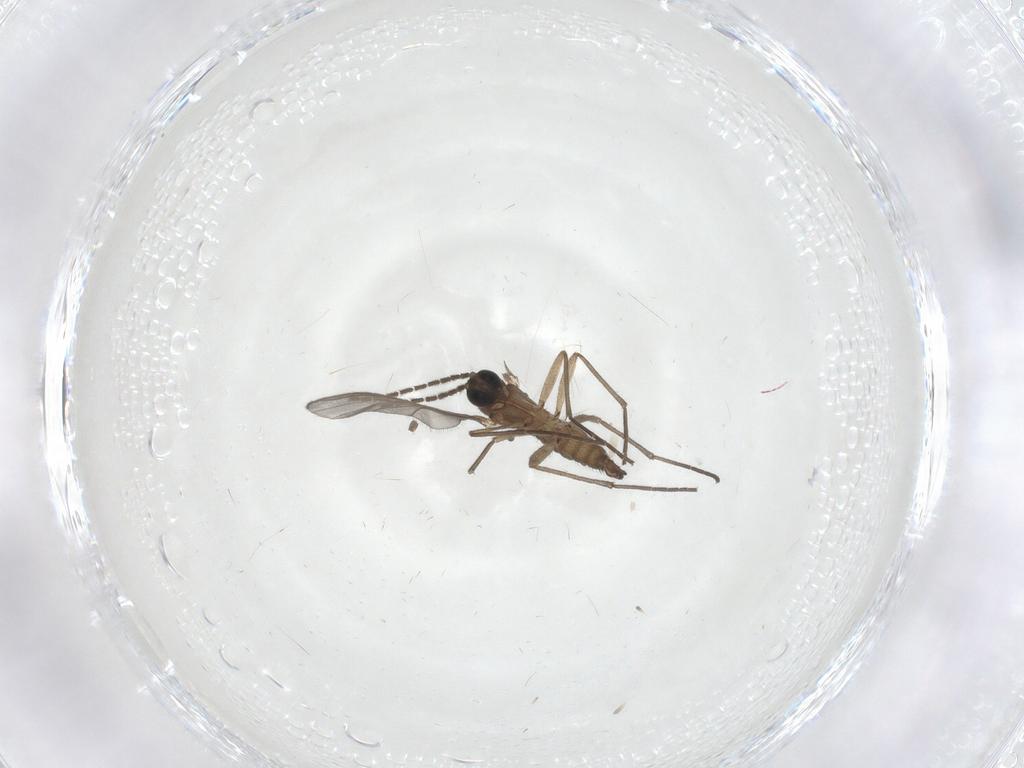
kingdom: Animalia
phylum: Arthropoda
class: Insecta
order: Diptera
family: Sciaridae
